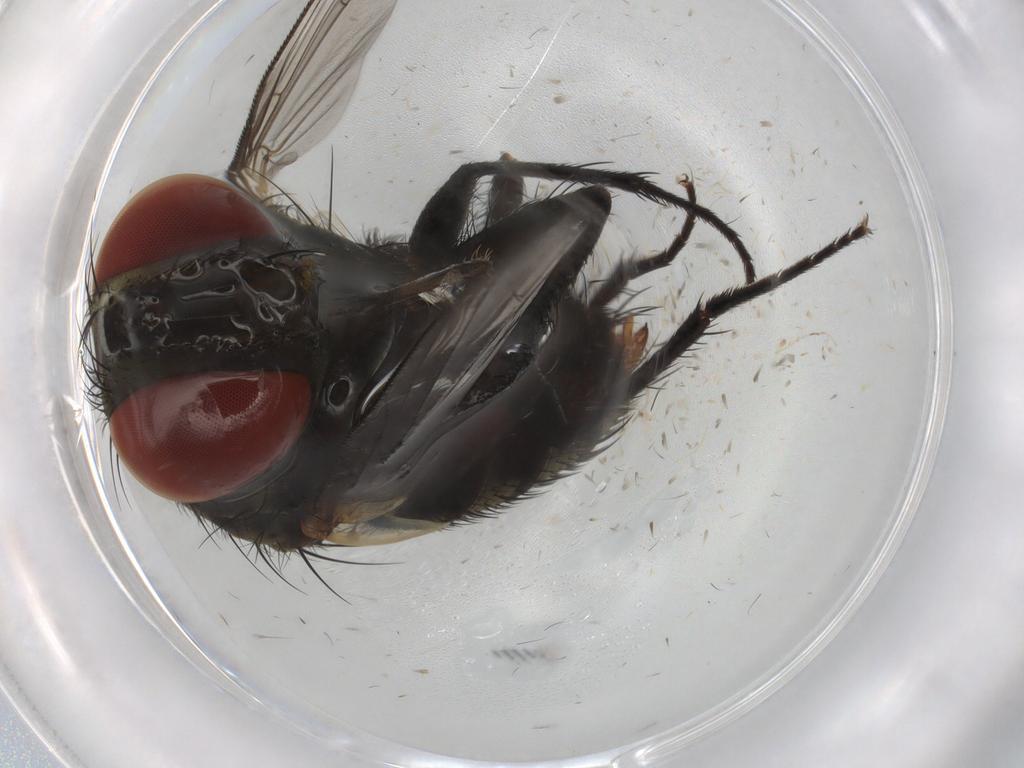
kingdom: Animalia
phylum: Arthropoda
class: Insecta
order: Diptera
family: Sarcophagidae
